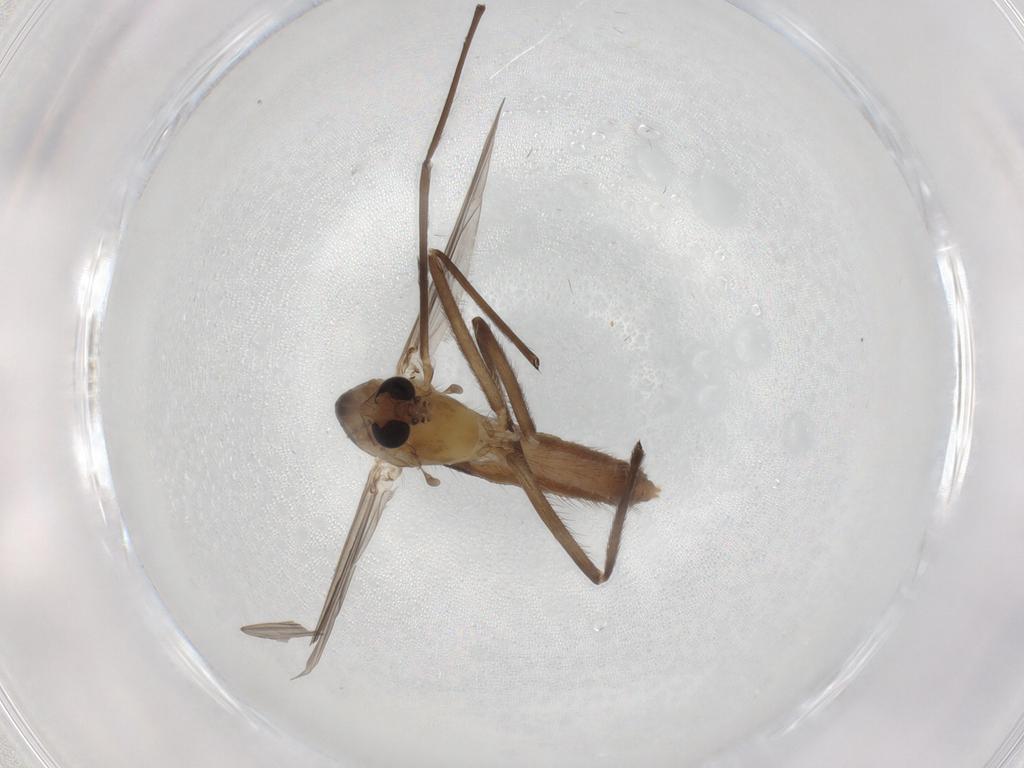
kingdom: Animalia
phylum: Arthropoda
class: Insecta
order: Diptera
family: Chironomidae
